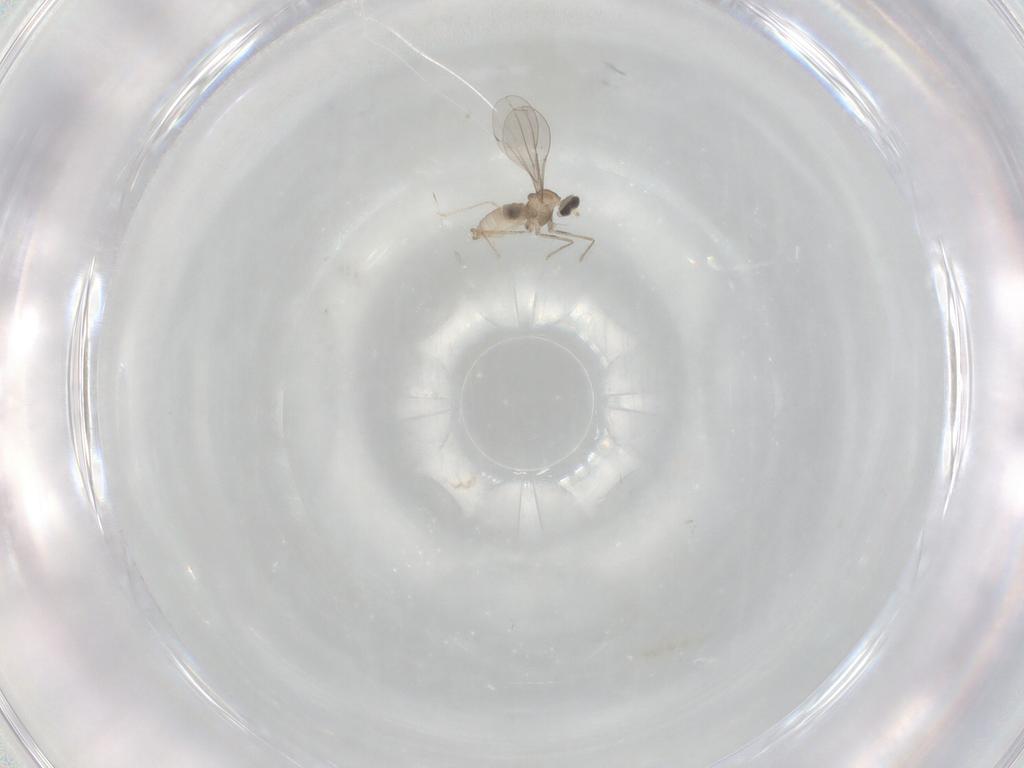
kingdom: Animalia
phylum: Arthropoda
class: Insecta
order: Diptera
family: Cecidomyiidae
